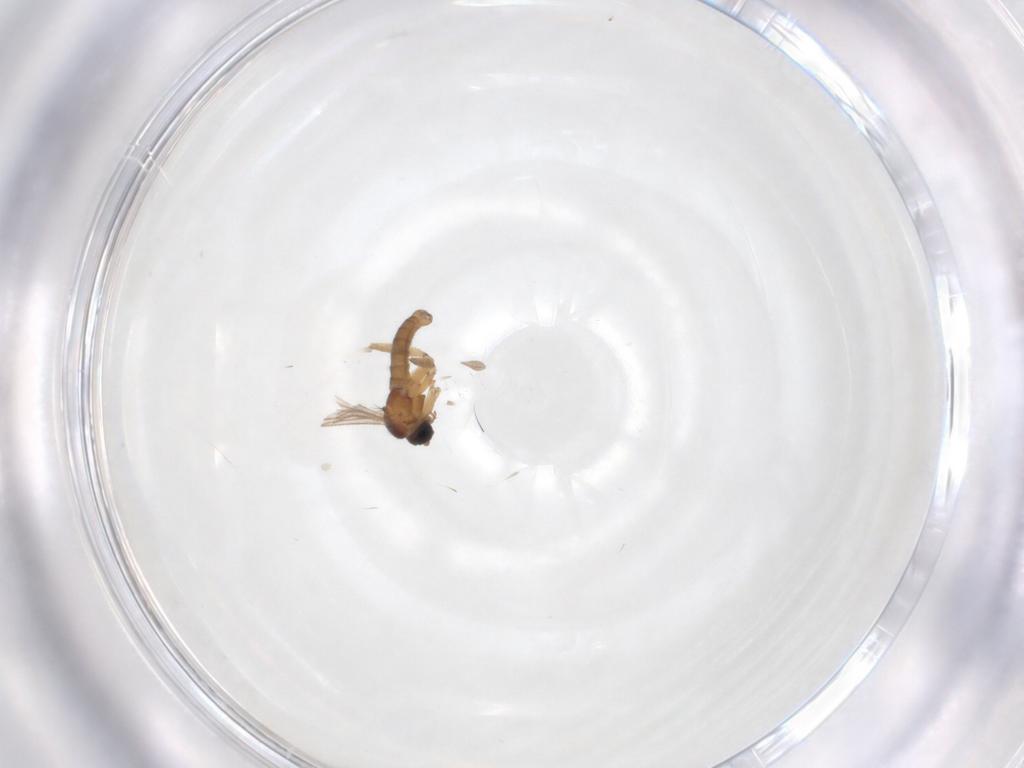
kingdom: Animalia
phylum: Arthropoda
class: Insecta
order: Diptera
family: Sciaridae
